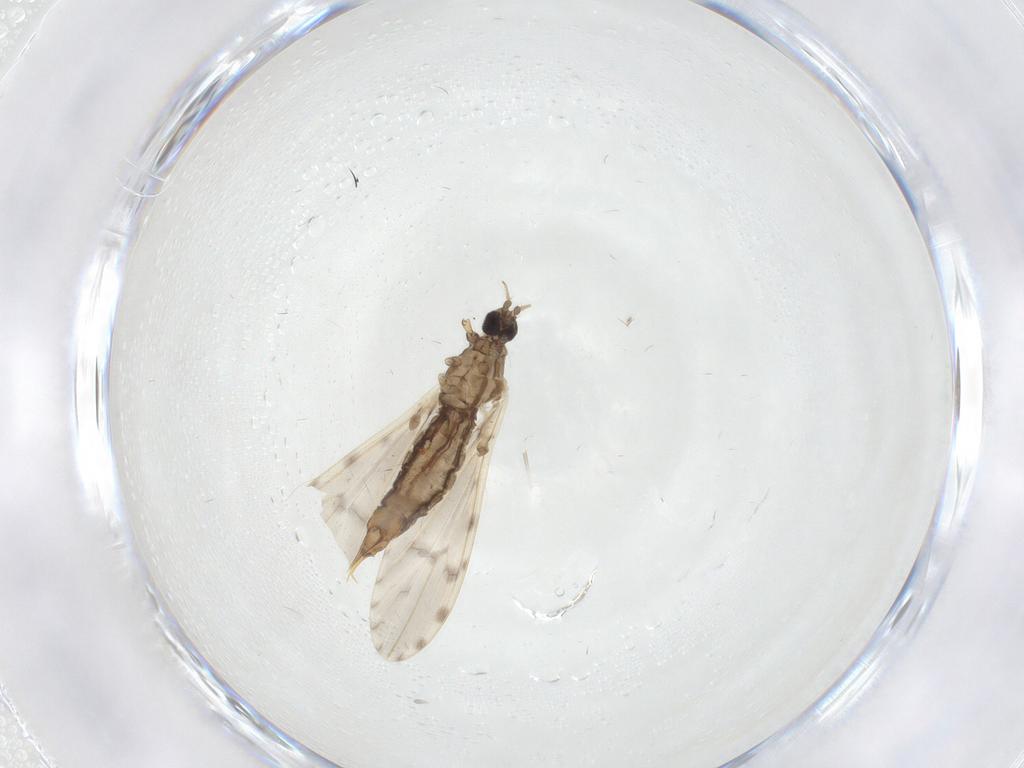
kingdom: Animalia
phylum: Arthropoda
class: Insecta
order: Diptera
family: Limoniidae
